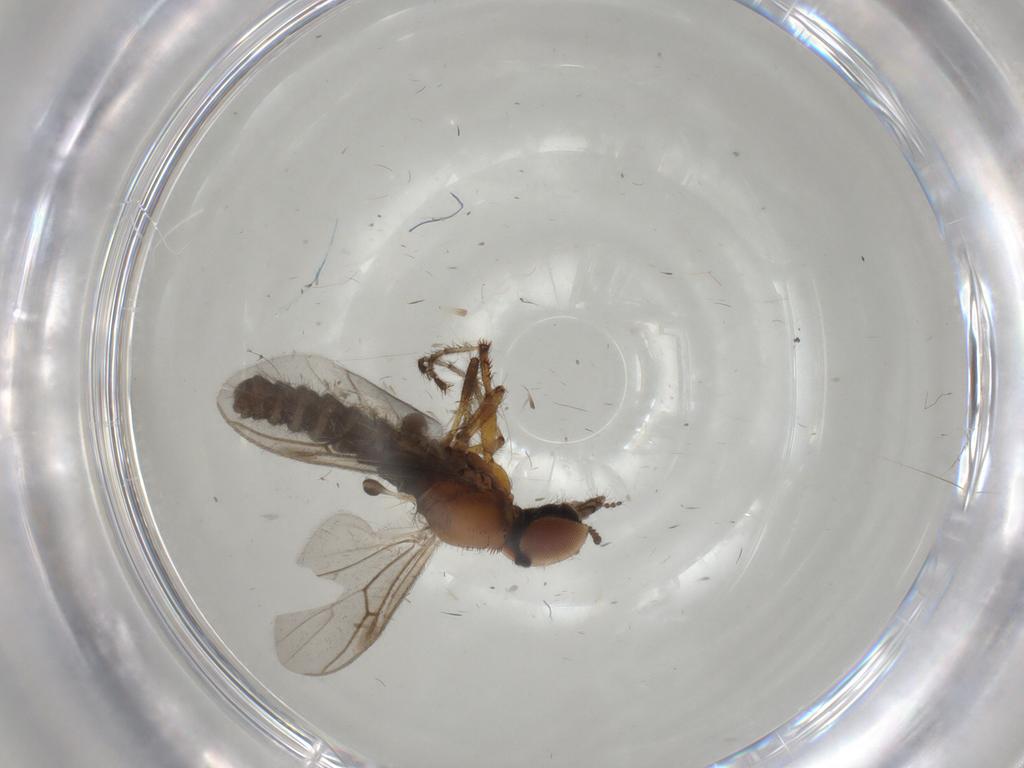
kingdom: Animalia
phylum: Arthropoda
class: Insecta
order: Diptera
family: Bibionidae
